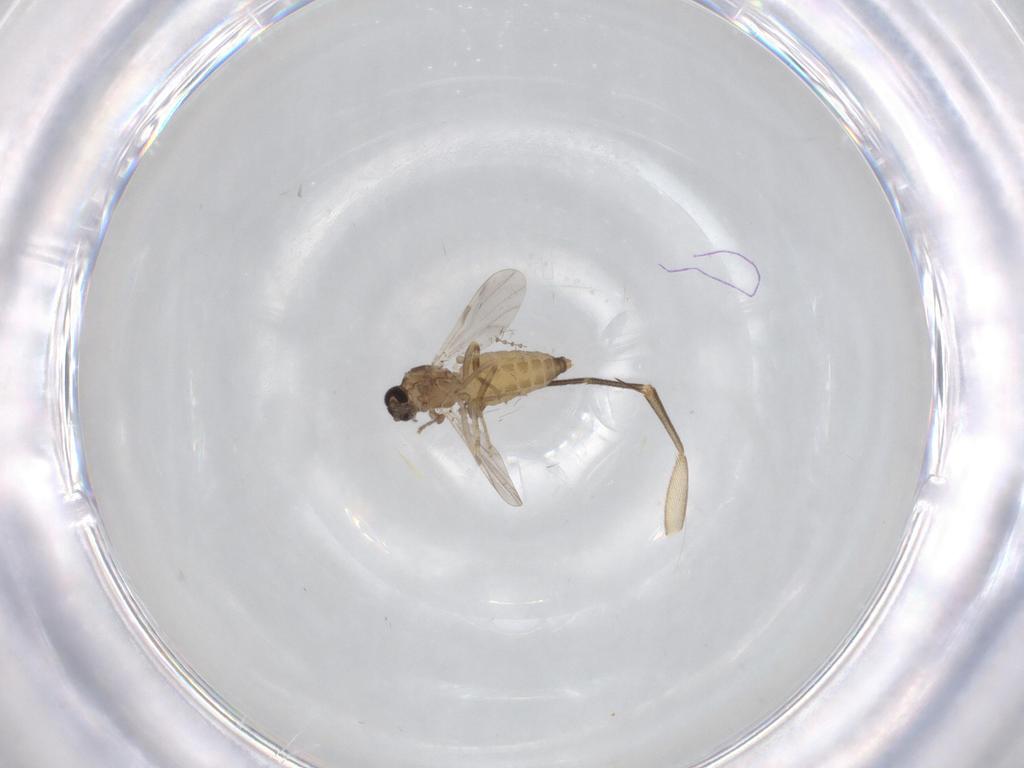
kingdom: Animalia
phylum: Arthropoda
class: Insecta
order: Diptera
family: Ceratopogonidae
